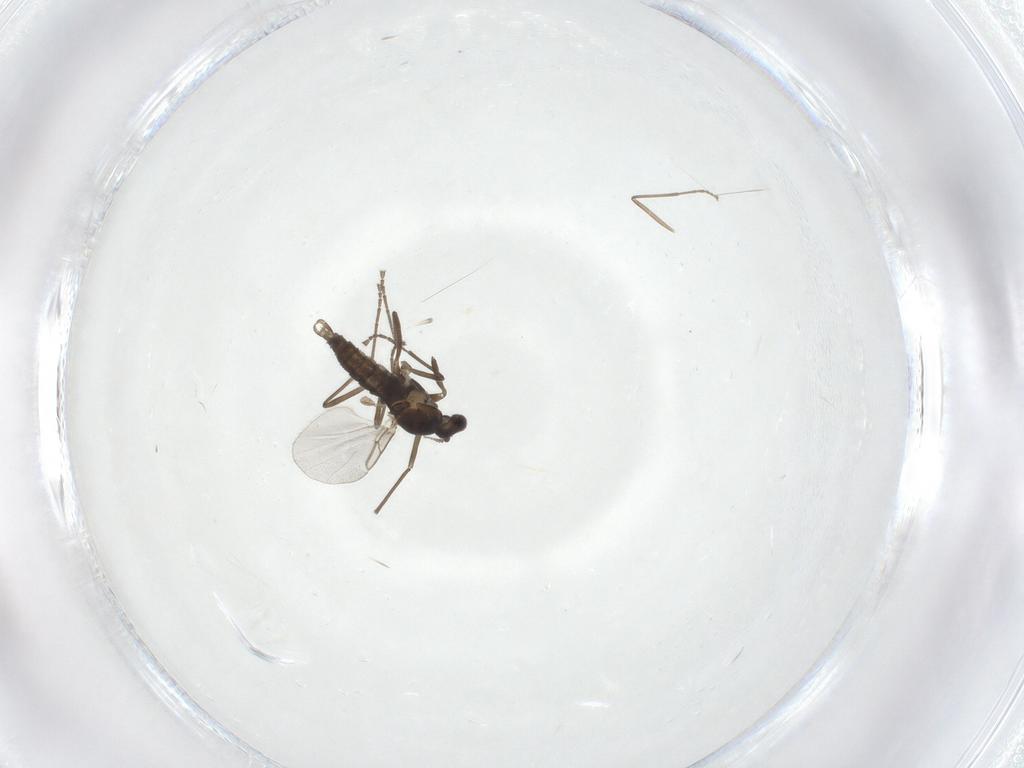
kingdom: Animalia
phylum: Arthropoda
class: Insecta
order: Diptera
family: Cecidomyiidae
